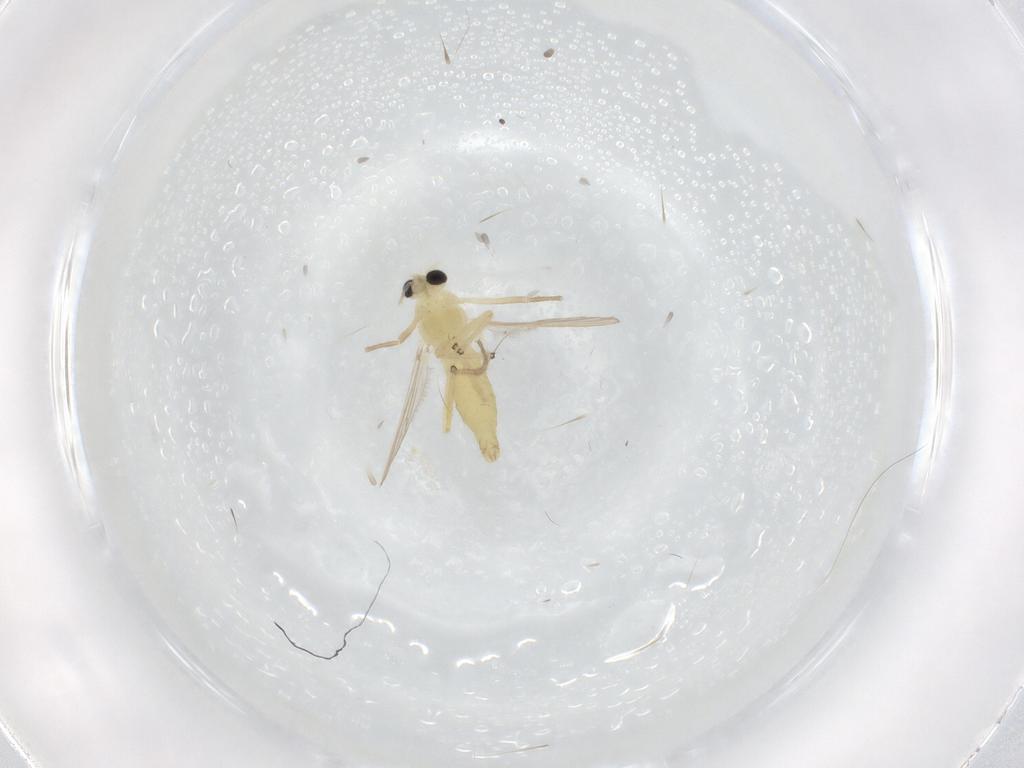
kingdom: Animalia
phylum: Arthropoda
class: Insecta
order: Diptera
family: Chironomidae
